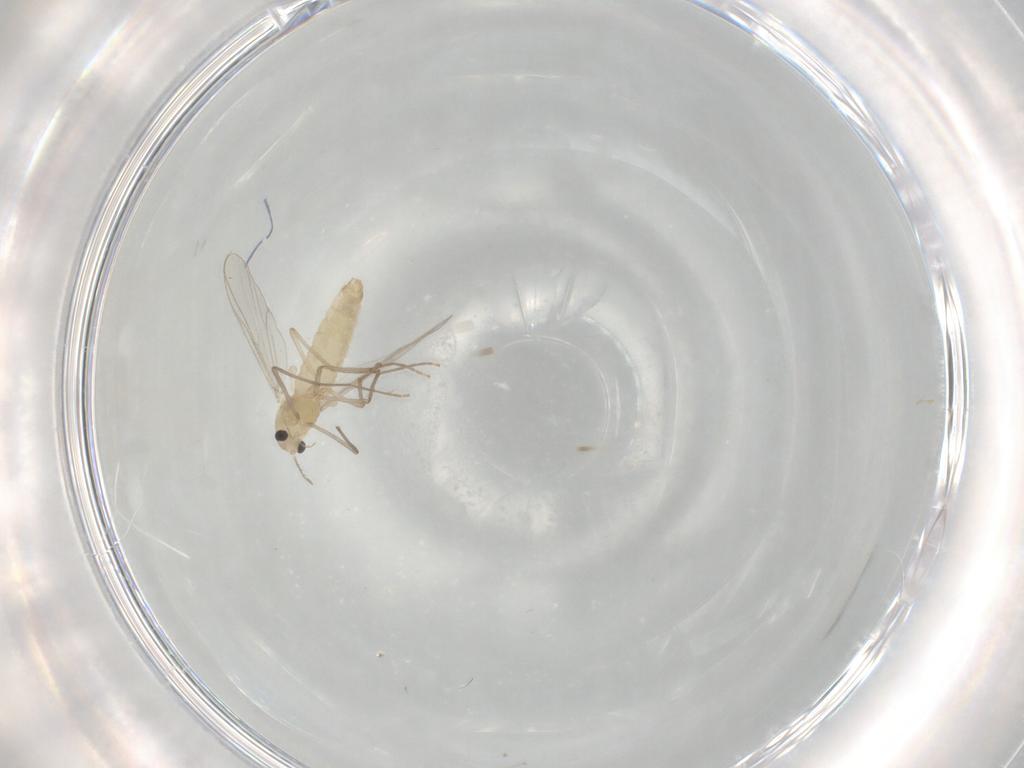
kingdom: Animalia
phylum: Arthropoda
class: Insecta
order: Diptera
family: Chironomidae
